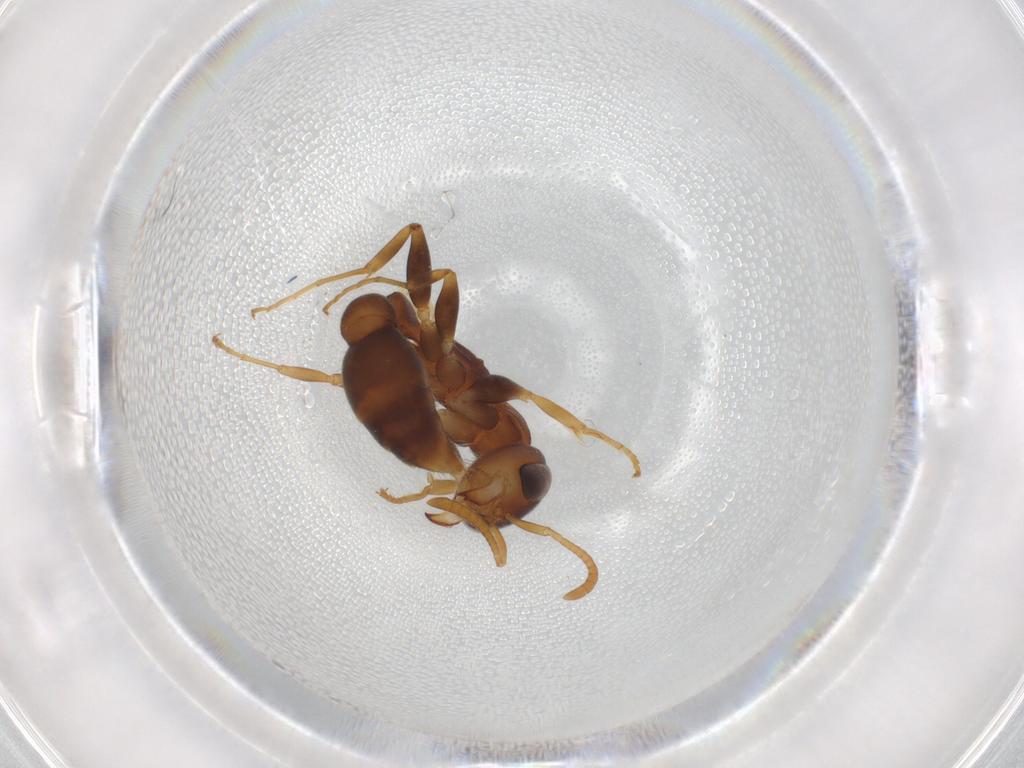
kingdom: Animalia
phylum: Arthropoda
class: Insecta
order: Hymenoptera
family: Formicidae
